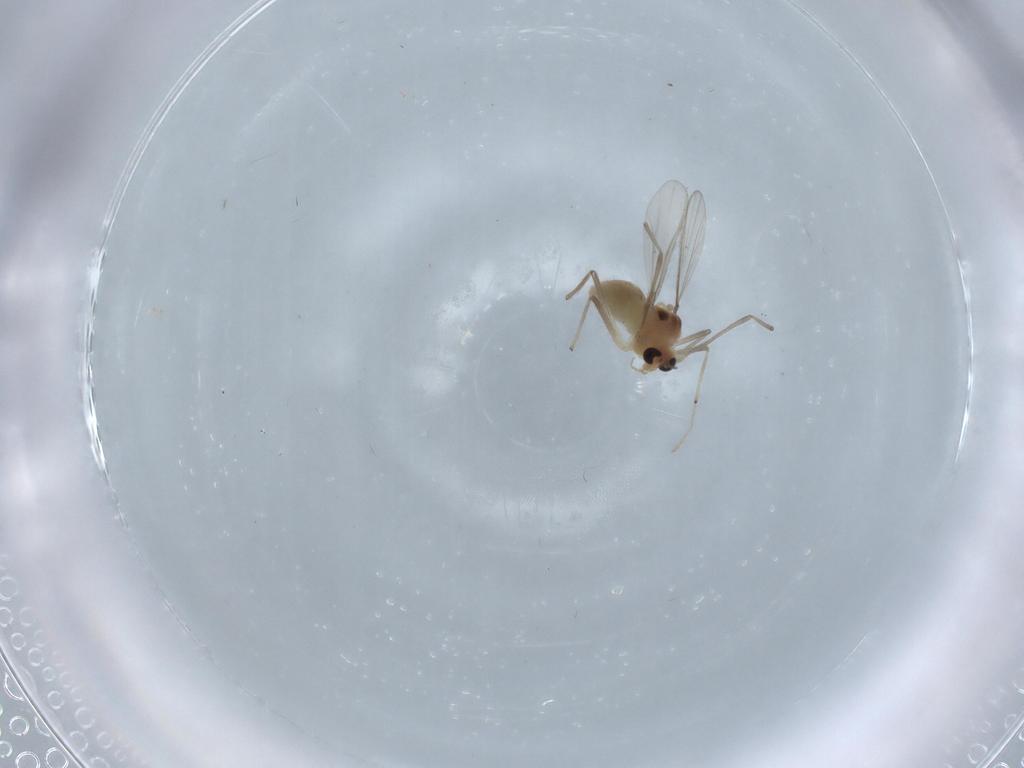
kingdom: Animalia
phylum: Arthropoda
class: Insecta
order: Diptera
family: Chironomidae
